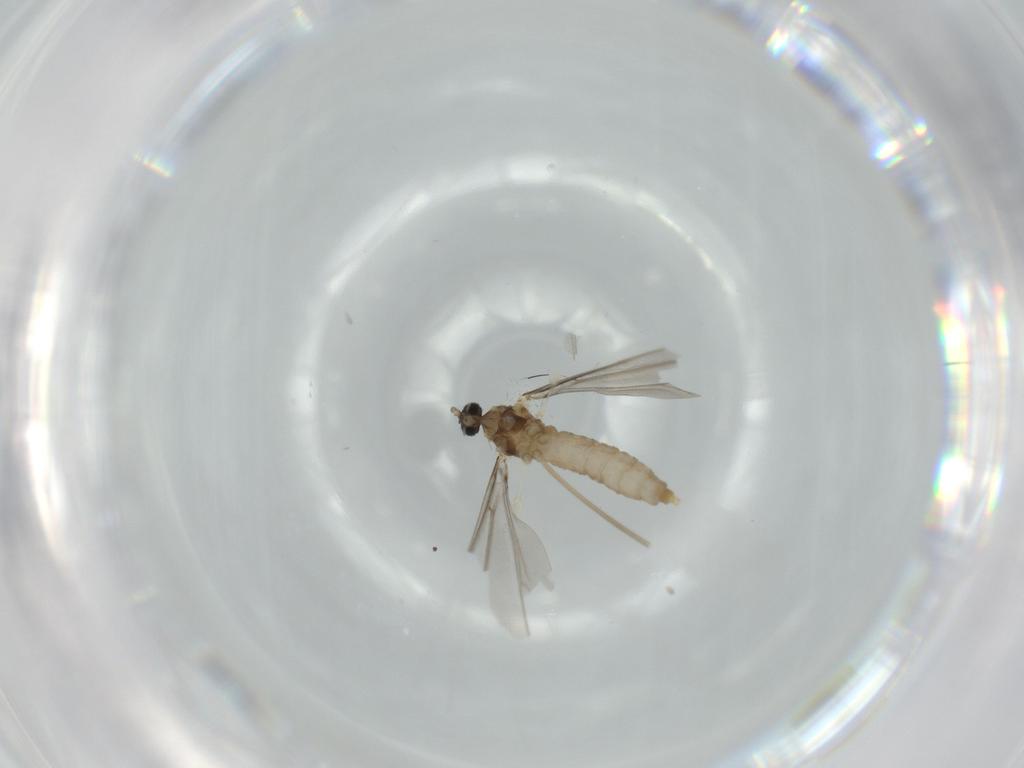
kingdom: Animalia
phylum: Arthropoda
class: Insecta
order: Diptera
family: Cecidomyiidae
